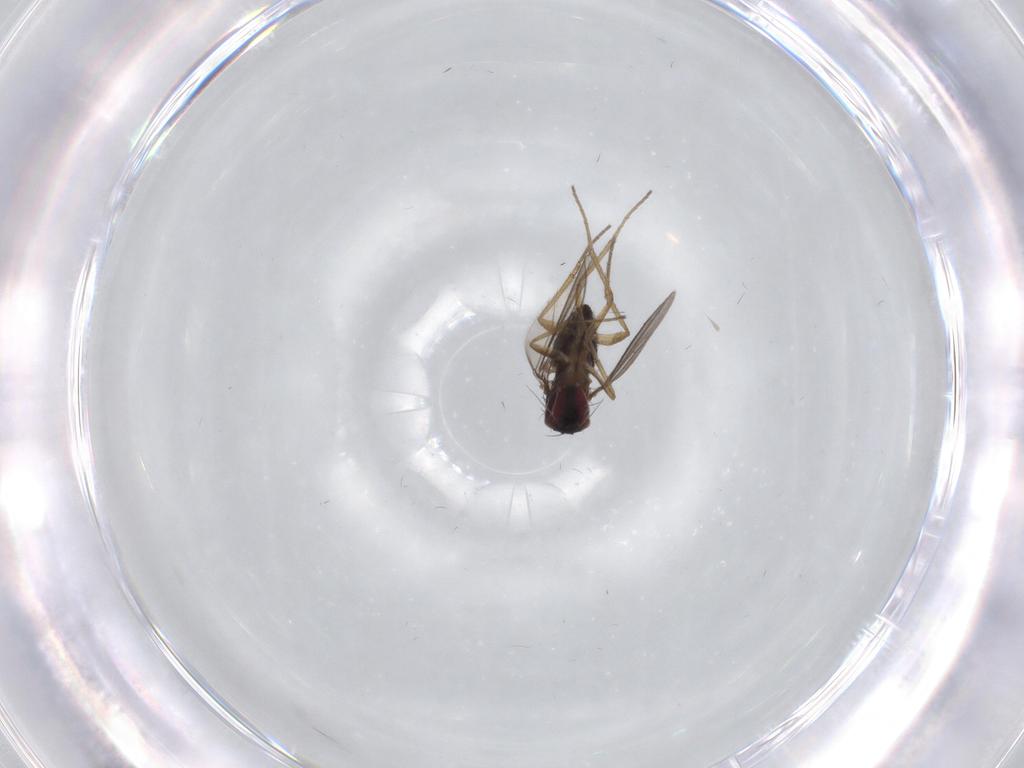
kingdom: Animalia
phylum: Arthropoda
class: Insecta
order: Diptera
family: Dolichopodidae
